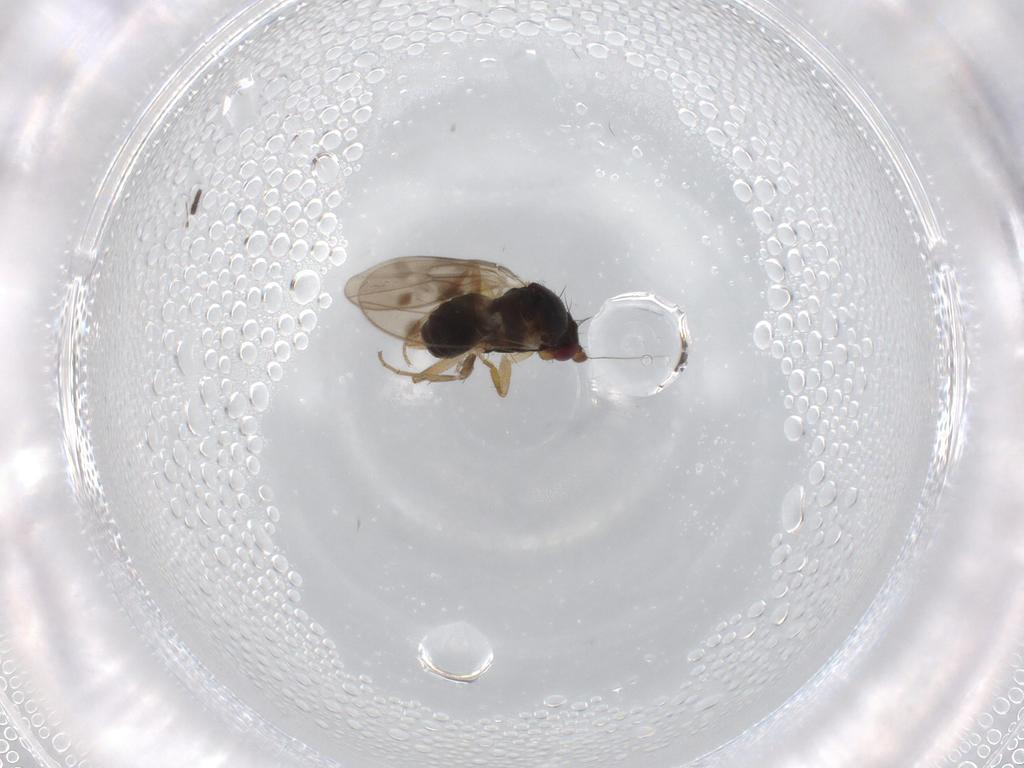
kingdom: Animalia
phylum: Arthropoda
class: Insecta
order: Diptera
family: Sphaeroceridae
